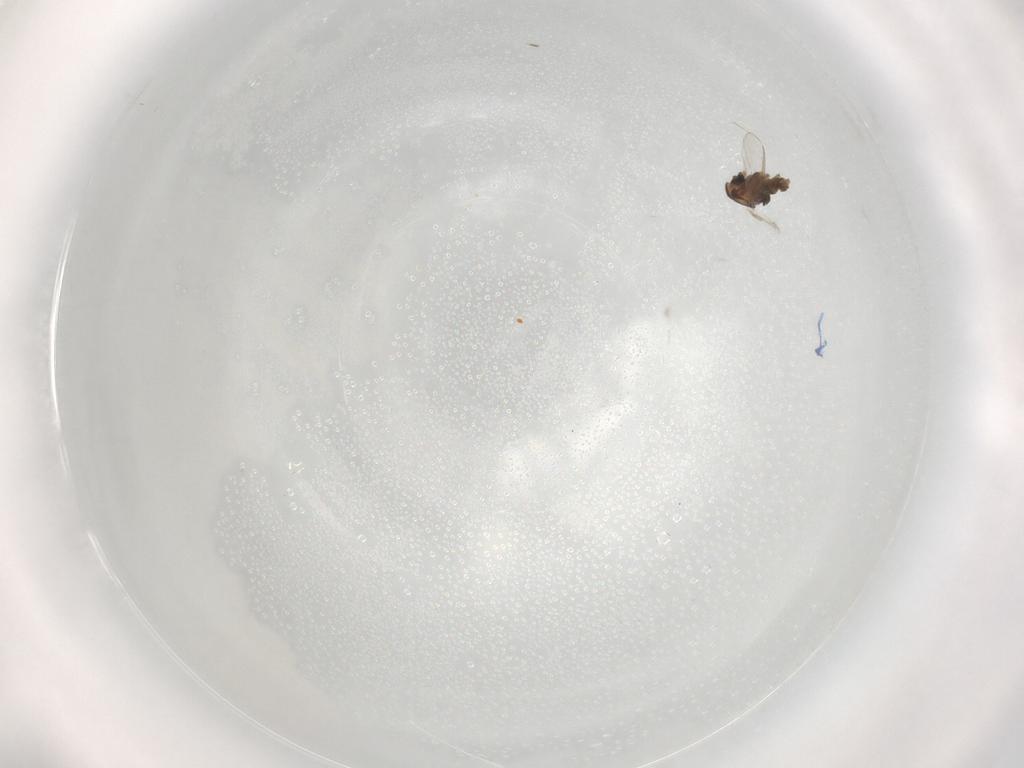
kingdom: Animalia
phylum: Arthropoda
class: Insecta
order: Diptera
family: Chironomidae
